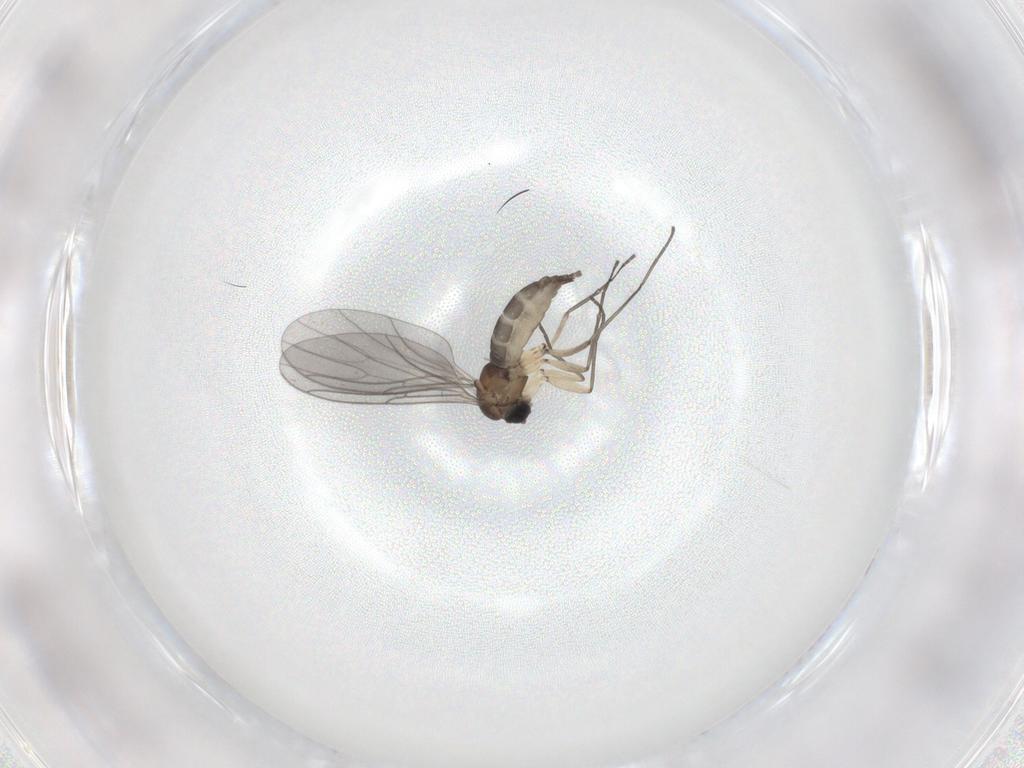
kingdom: Animalia
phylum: Arthropoda
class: Insecta
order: Diptera
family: Sciaridae
